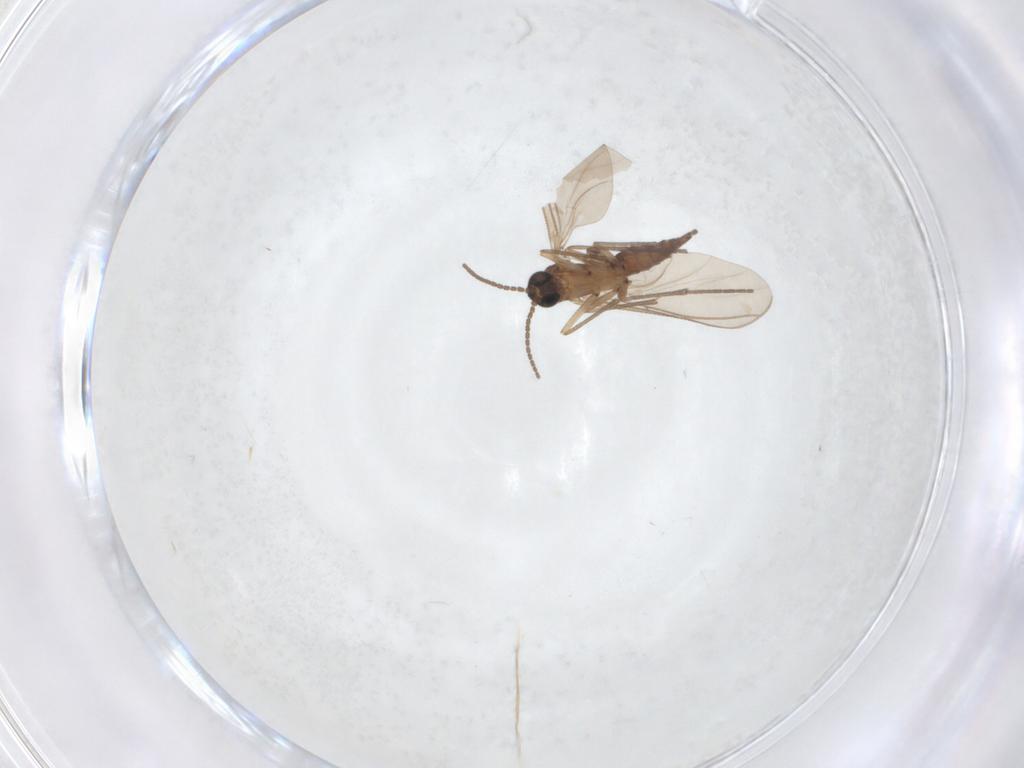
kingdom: Animalia
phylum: Arthropoda
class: Insecta
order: Diptera
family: Sciaridae
